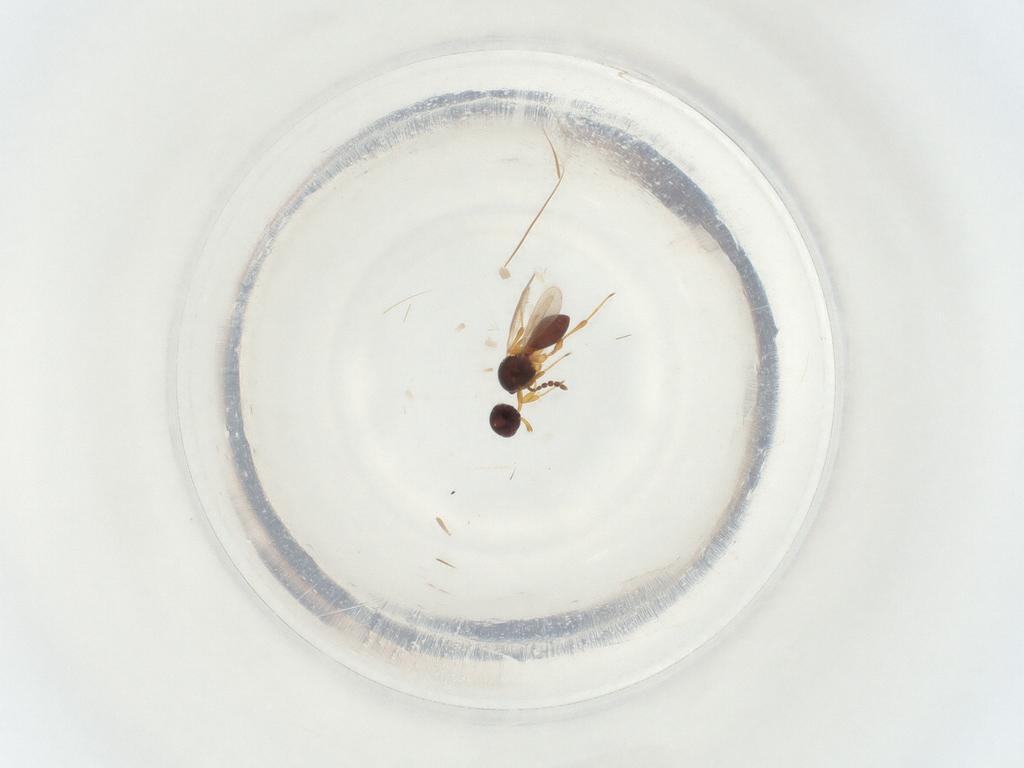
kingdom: Animalia
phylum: Arthropoda
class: Insecta
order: Hymenoptera
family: Platygastridae
